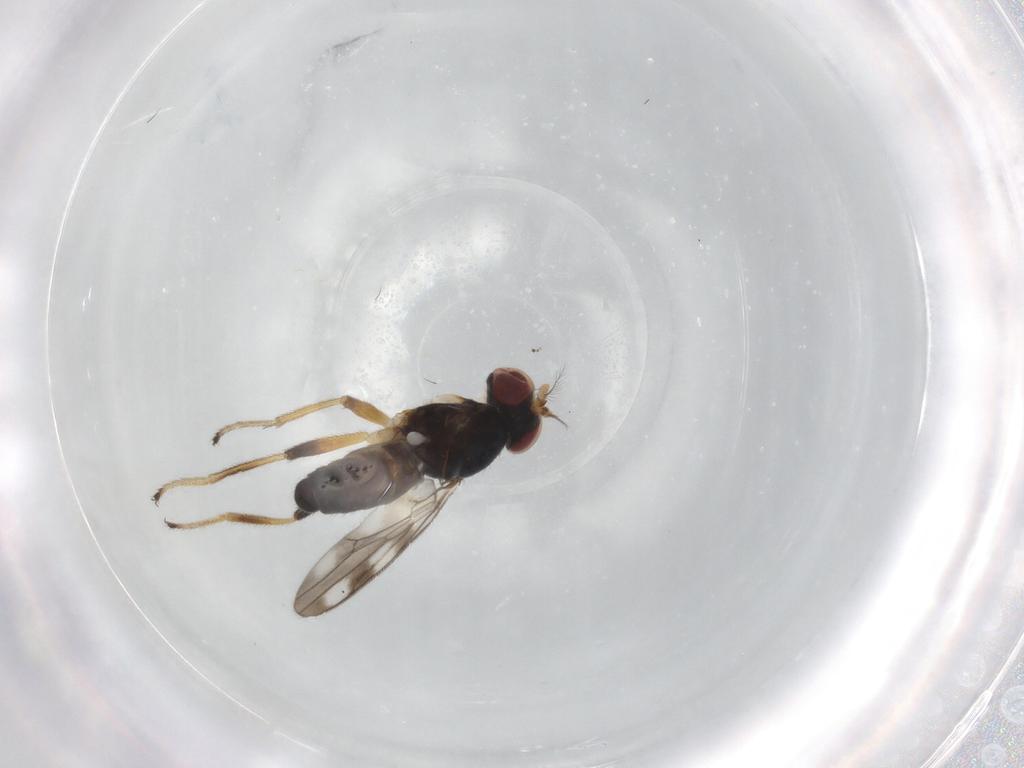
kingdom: Animalia
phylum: Arthropoda
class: Insecta
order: Diptera
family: Periscelididae
